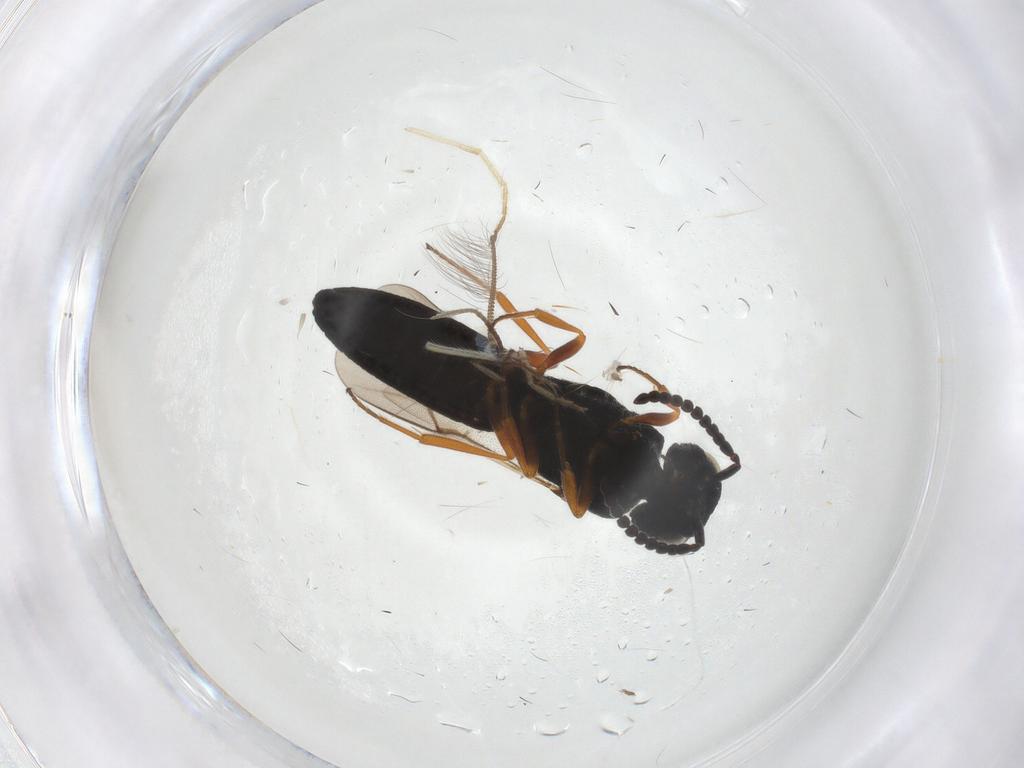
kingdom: Animalia
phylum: Arthropoda
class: Insecta
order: Hymenoptera
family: Scelionidae
